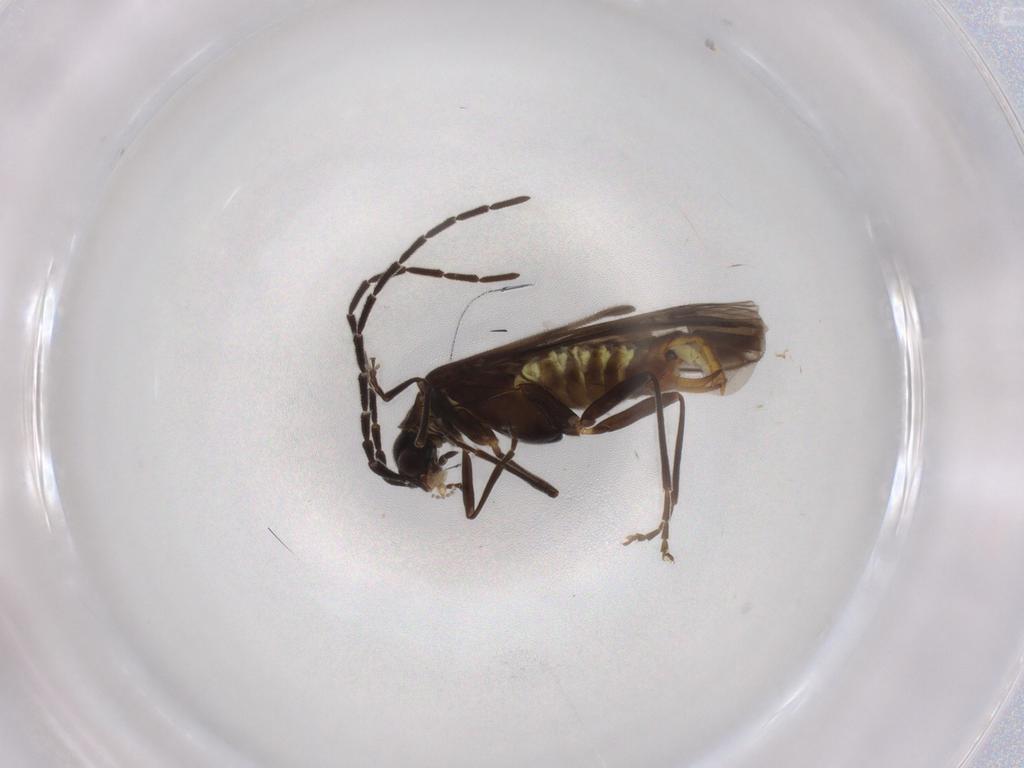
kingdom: Animalia
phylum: Arthropoda
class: Insecta
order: Coleoptera
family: Cantharidae
